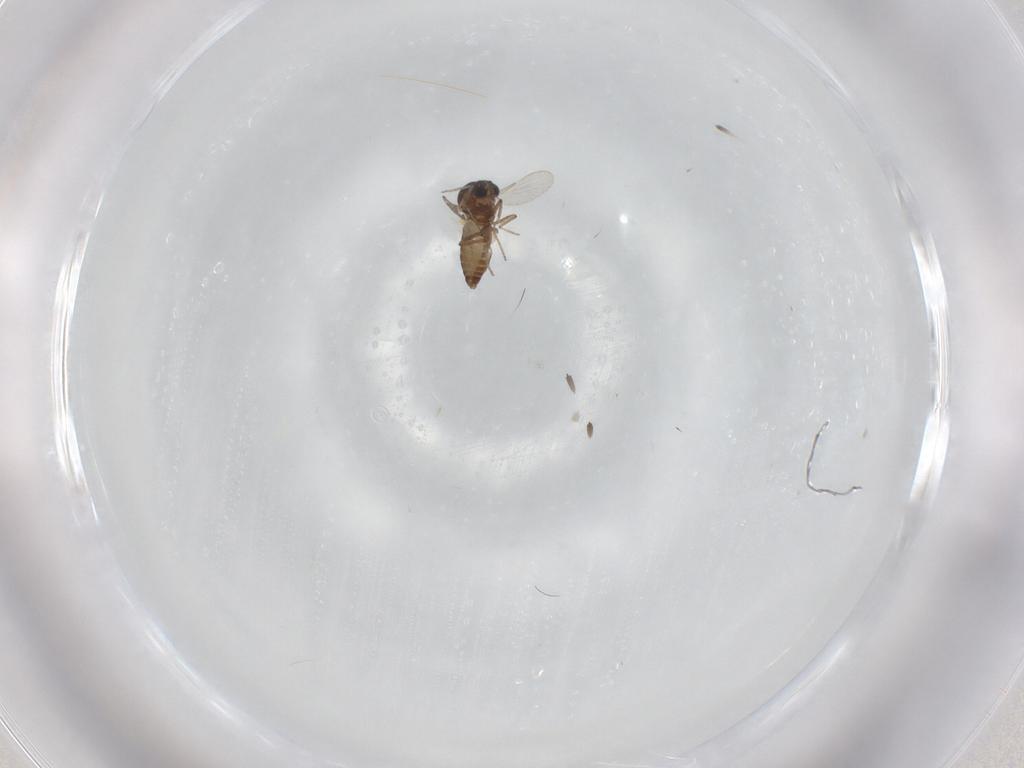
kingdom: Animalia
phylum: Arthropoda
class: Insecta
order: Diptera
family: Ceratopogonidae
